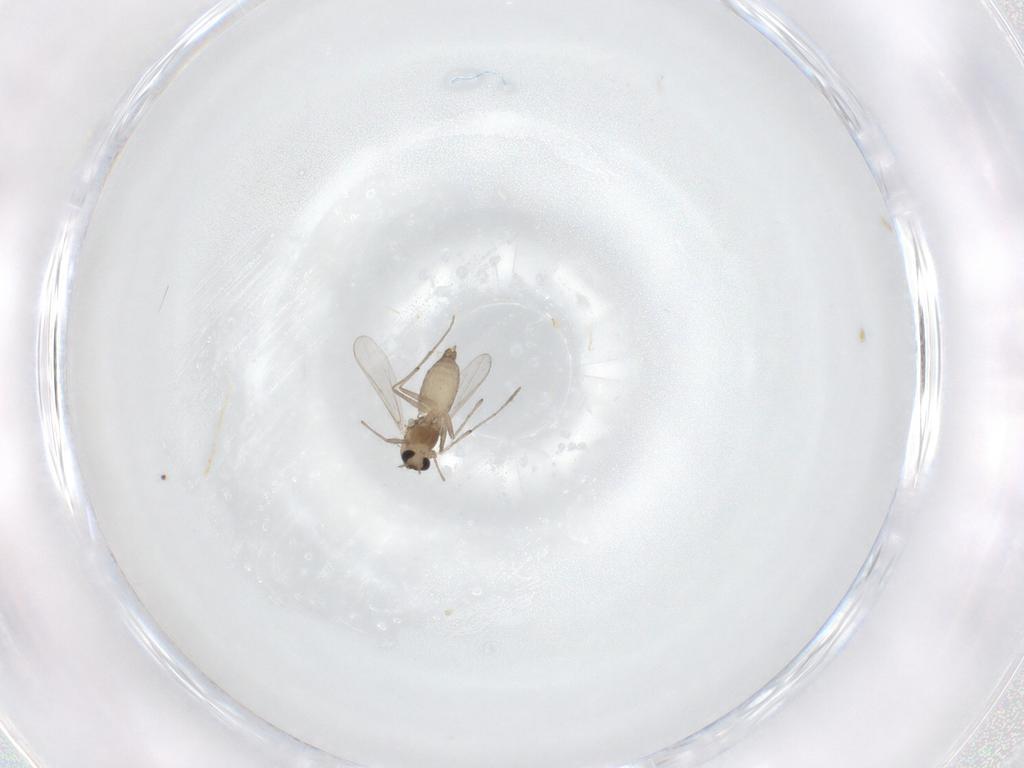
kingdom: Animalia
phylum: Arthropoda
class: Insecta
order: Diptera
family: Chironomidae
